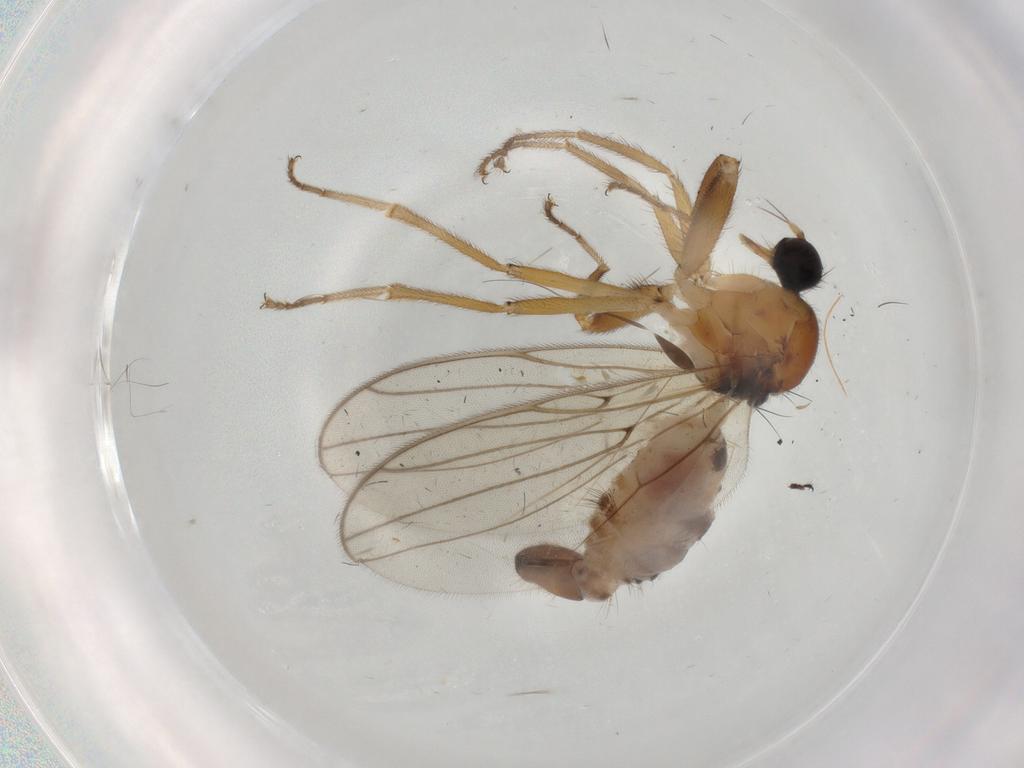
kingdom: Animalia
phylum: Arthropoda
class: Insecta
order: Diptera
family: Hybotidae
